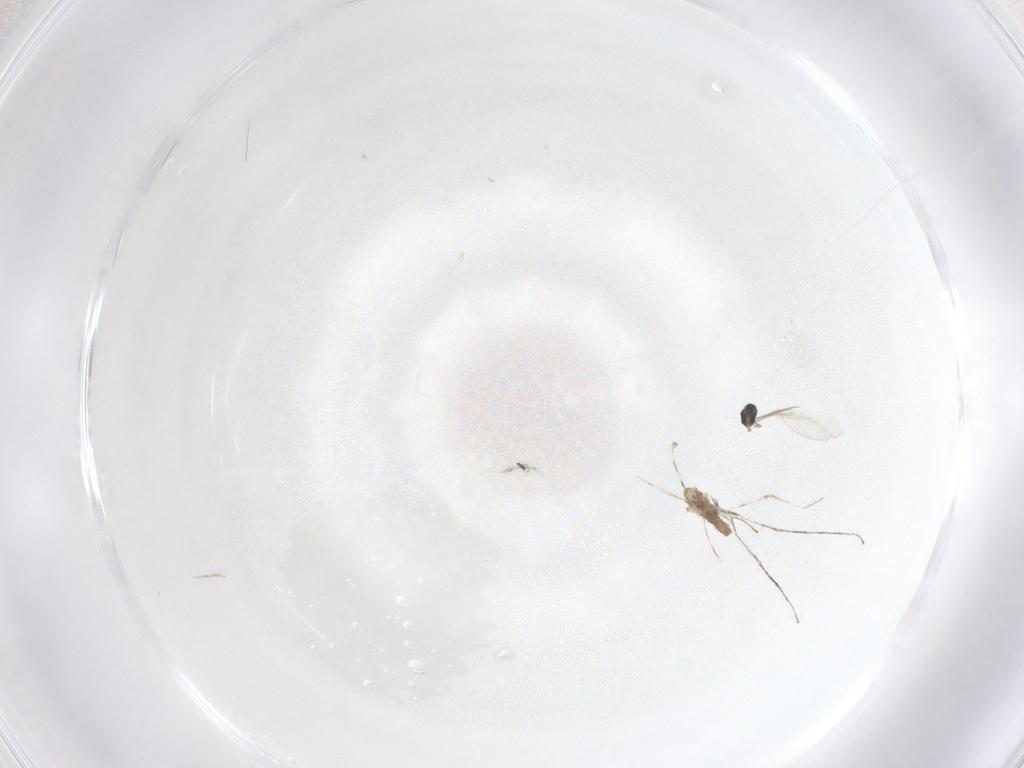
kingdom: Animalia
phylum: Arthropoda
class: Insecta
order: Diptera
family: Cecidomyiidae
